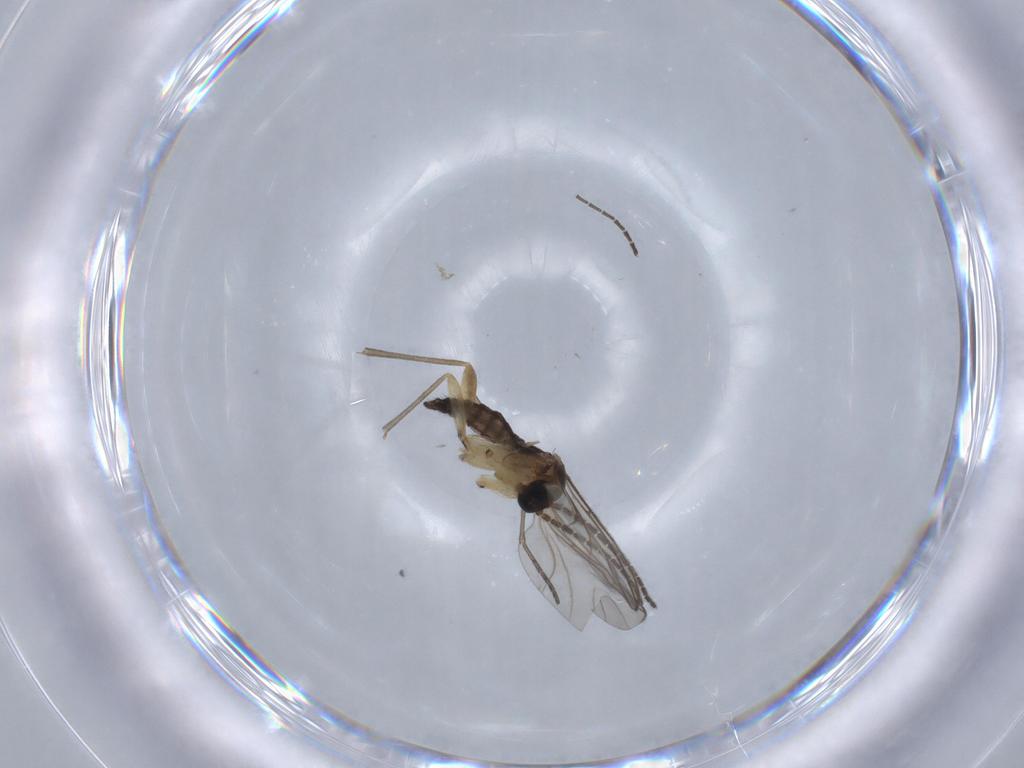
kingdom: Animalia
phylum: Arthropoda
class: Insecta
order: Diptera
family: Sciaridae
